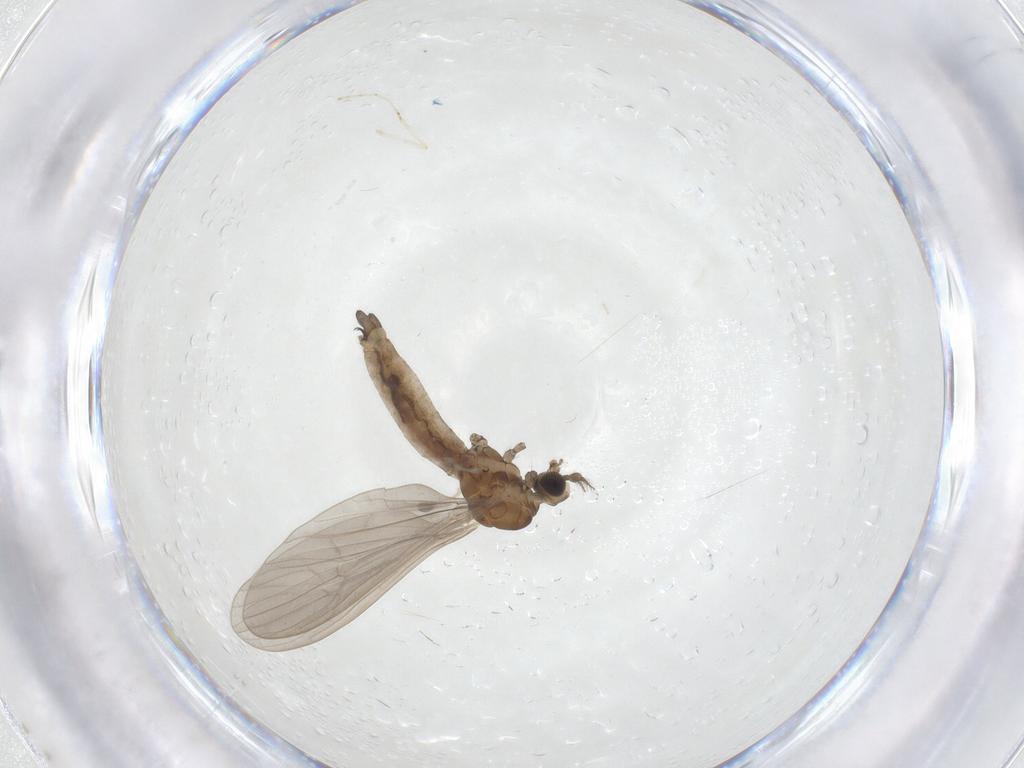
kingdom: Animalia
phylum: Arthropoda
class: Insecta
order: Diptera
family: Cecidomyiidae
